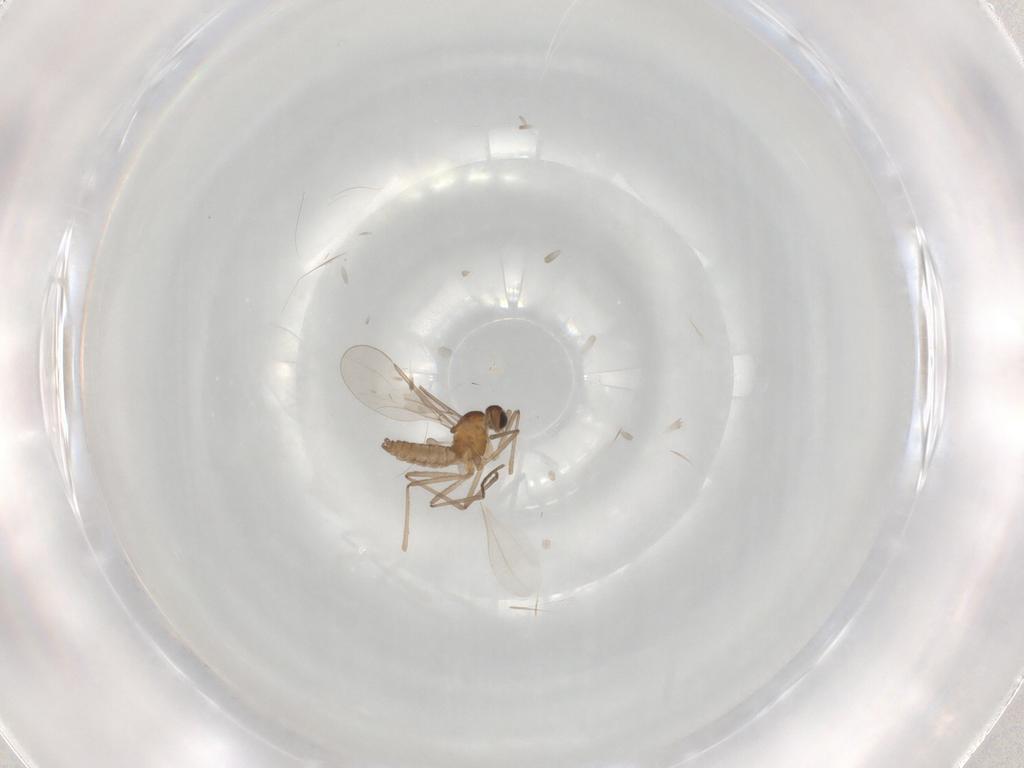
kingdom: Animalia
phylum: Arthropoda
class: Insecta
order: Diptera
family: Cecidomyiidae
